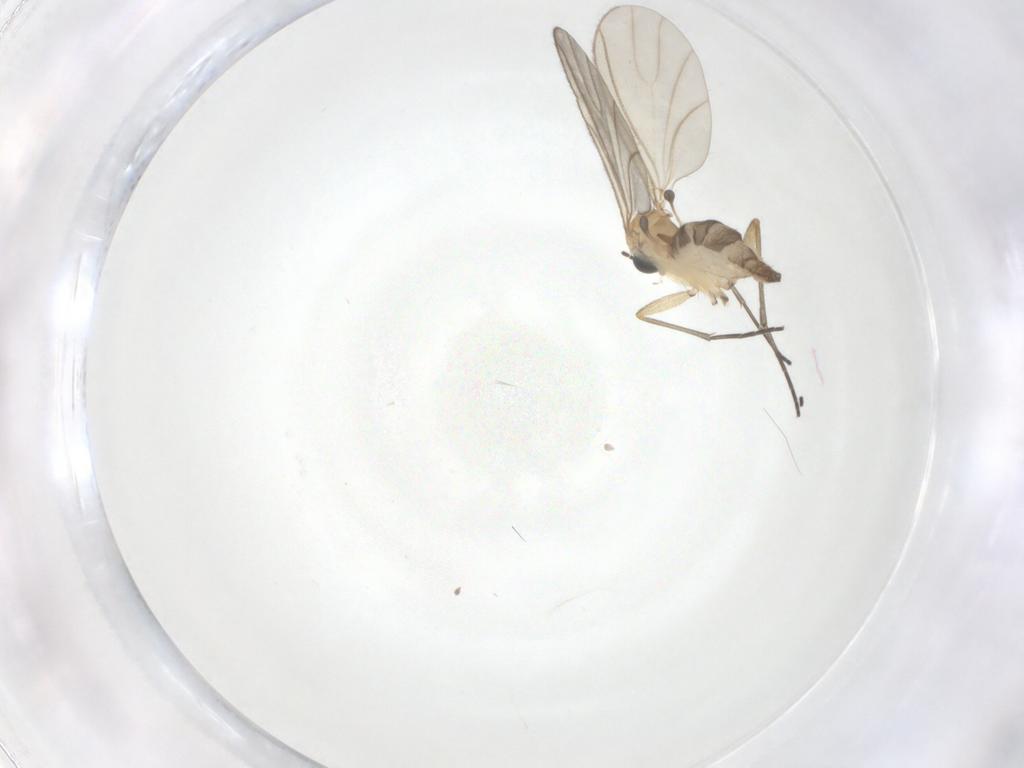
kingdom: Animalia
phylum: Arthropoda
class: Insecta
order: Diptera
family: Sciaridae
